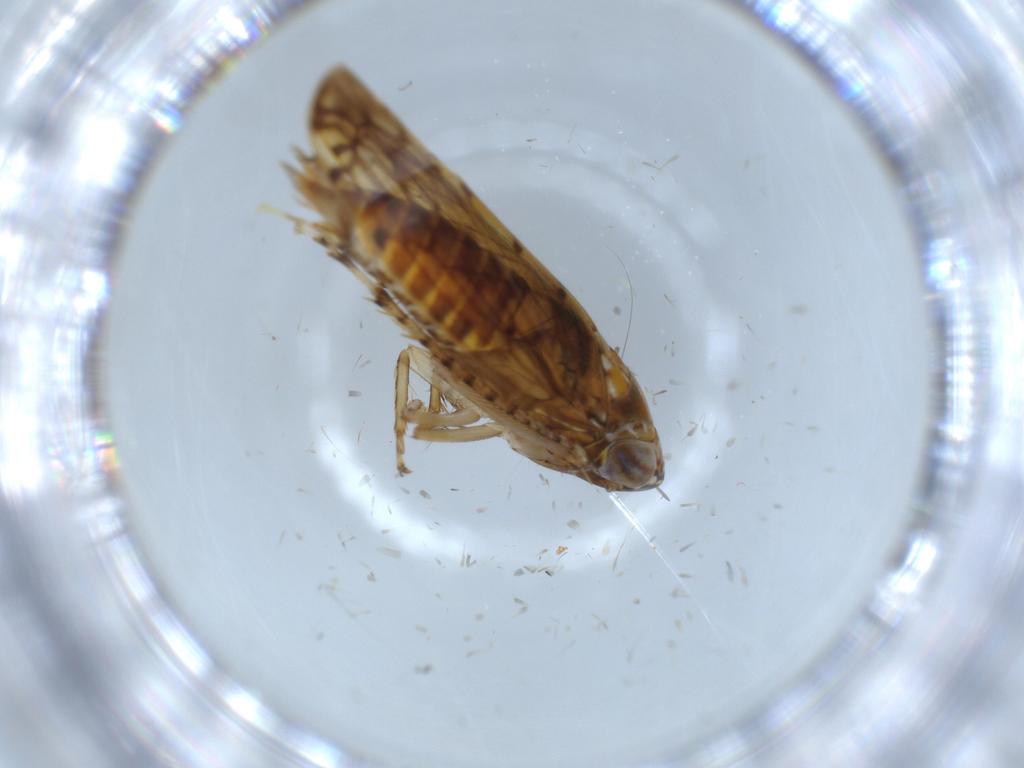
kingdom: Animalia
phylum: Arthropoda
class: Insecta
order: Hemiptera
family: Cicadellidae
